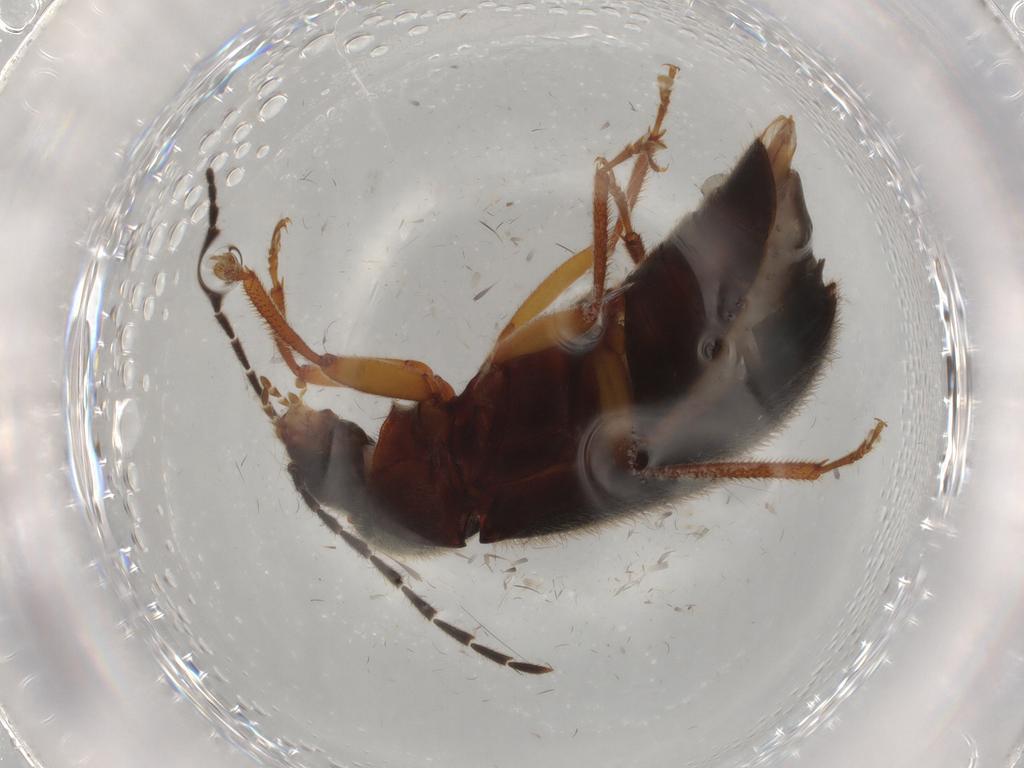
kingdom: Animalia
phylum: Arthropoda
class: Insecta
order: Coleoptera
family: Ptilodactylidae
